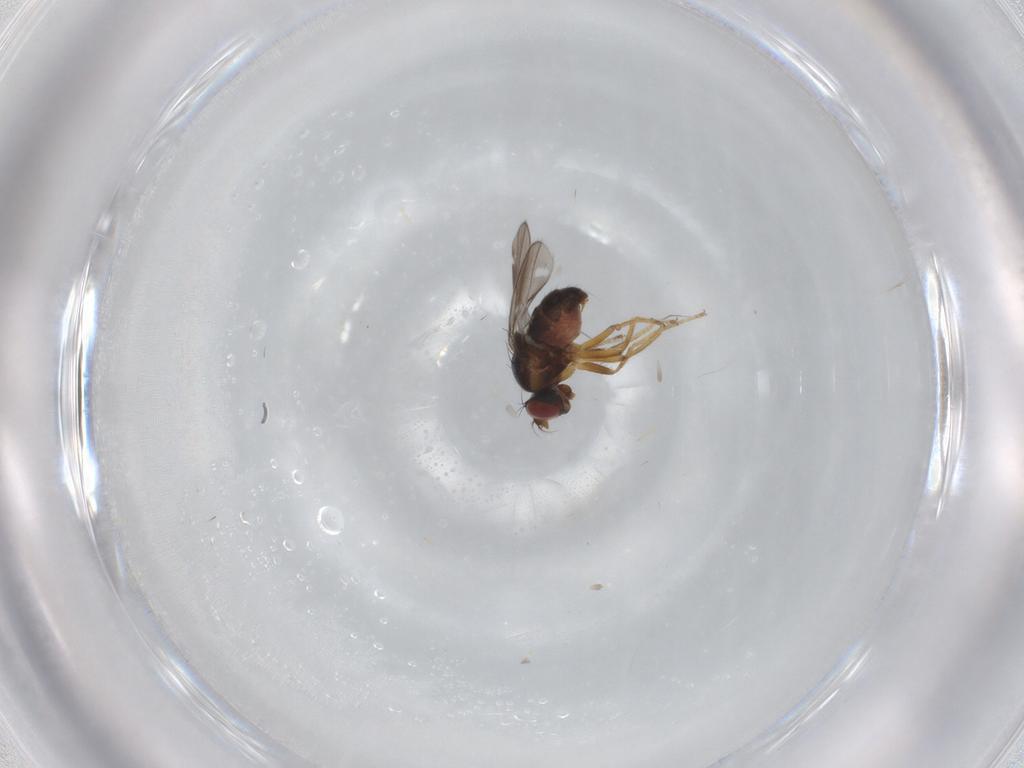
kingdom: Animalia
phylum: Arthropoda
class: Insecta
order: Diptera
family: Ephydridae
